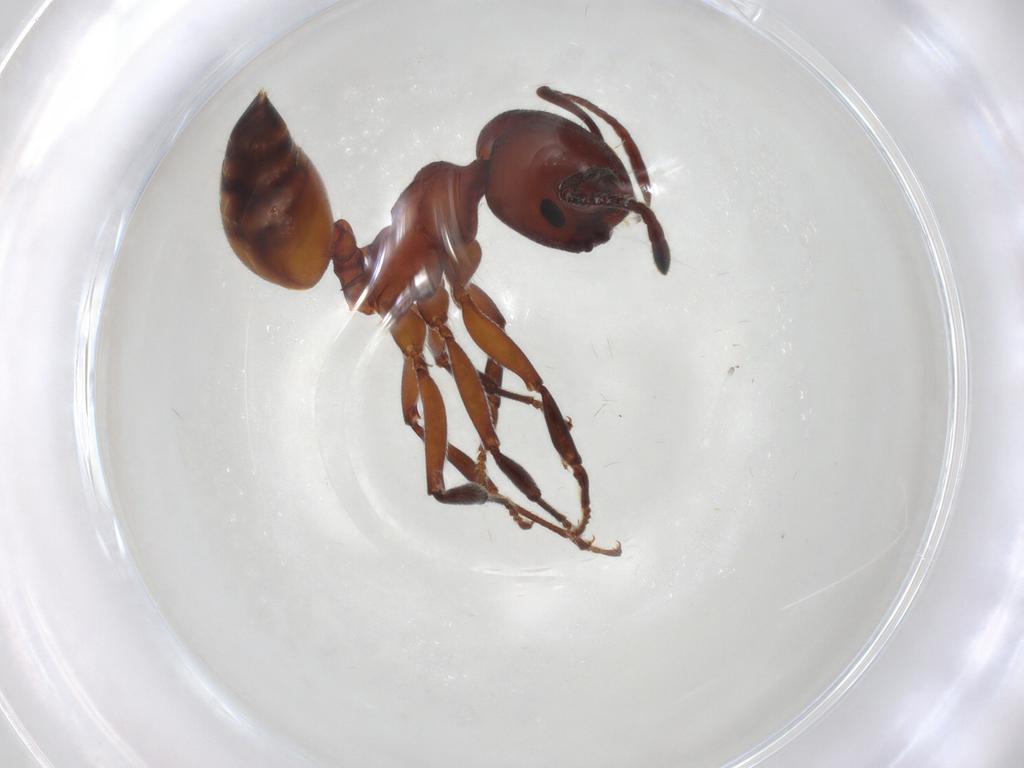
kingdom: Animalia
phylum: Arthropoda
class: Insecta
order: Hymenoptera
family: Formicidae
